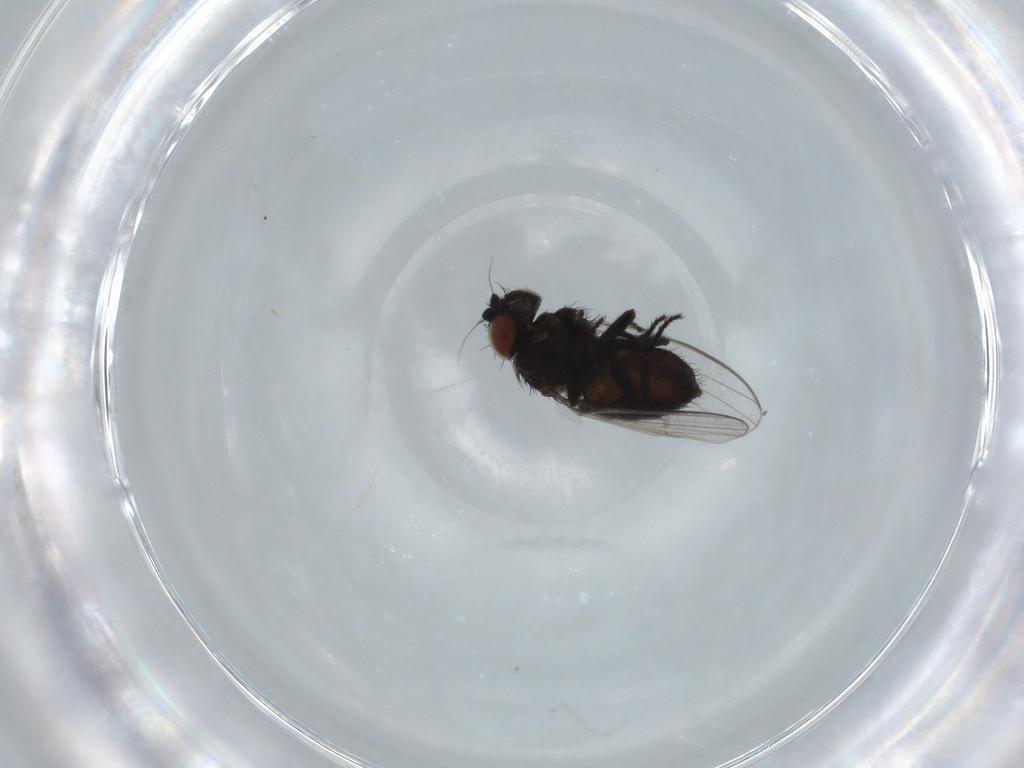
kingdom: Animalia
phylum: Arthropoda
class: Insecta
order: Diptera
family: Milichiidae
